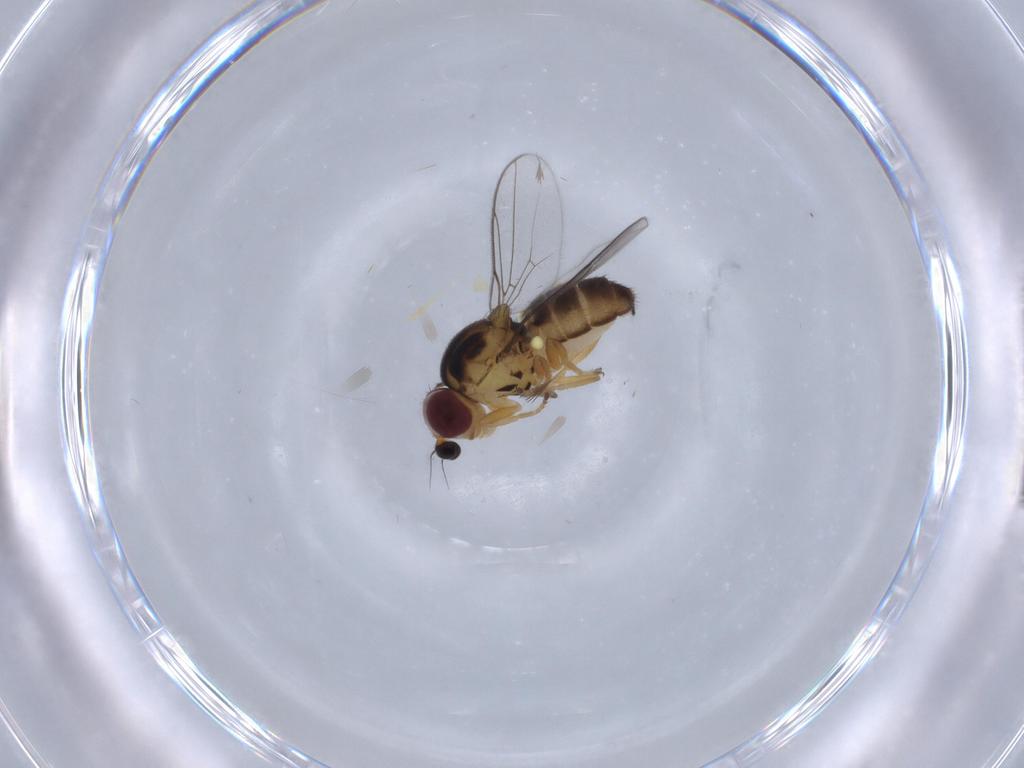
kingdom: Animalia
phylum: Arthropoda
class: Insecta
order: Diptera
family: Chloropidae
